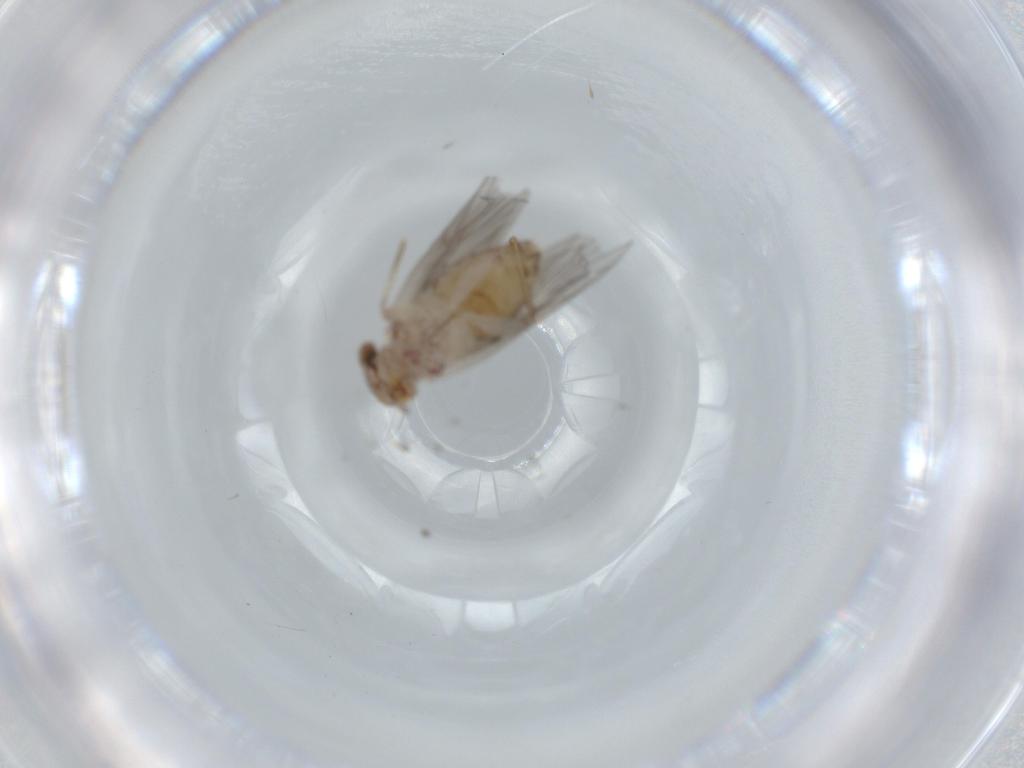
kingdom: Animalia
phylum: Arthropoda
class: Insecta
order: Psocodea
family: Lepidopsocidae
